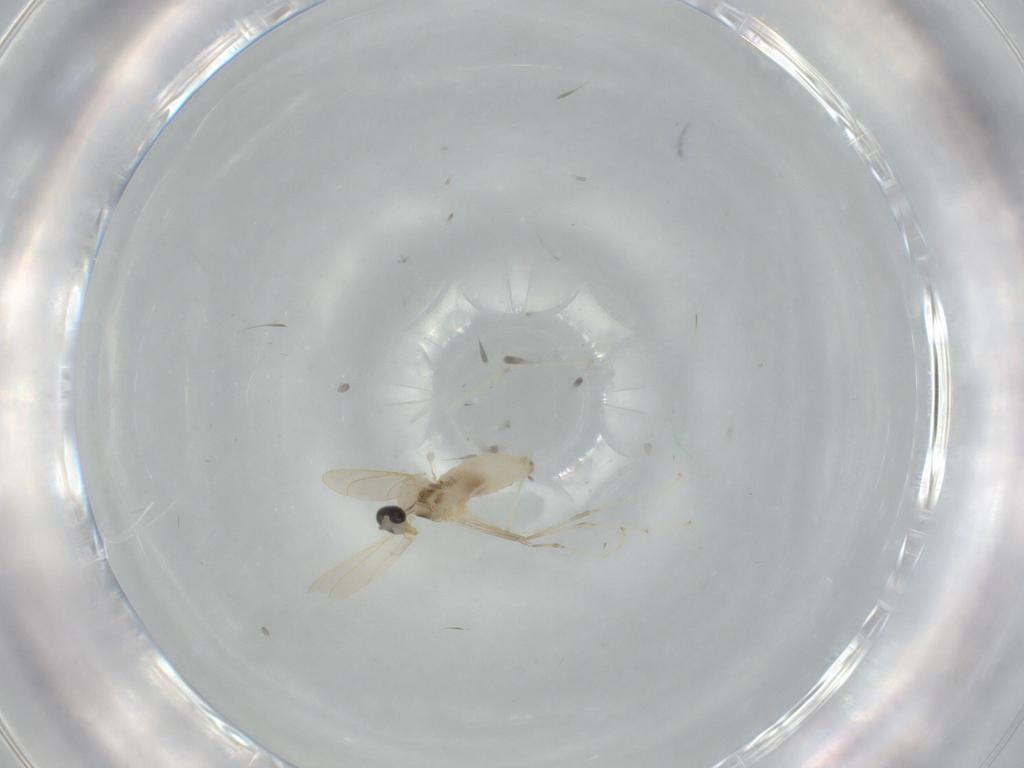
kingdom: Animalia
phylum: Arthropoda
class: Insecta
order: Diptera
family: Cecidomyiidae
